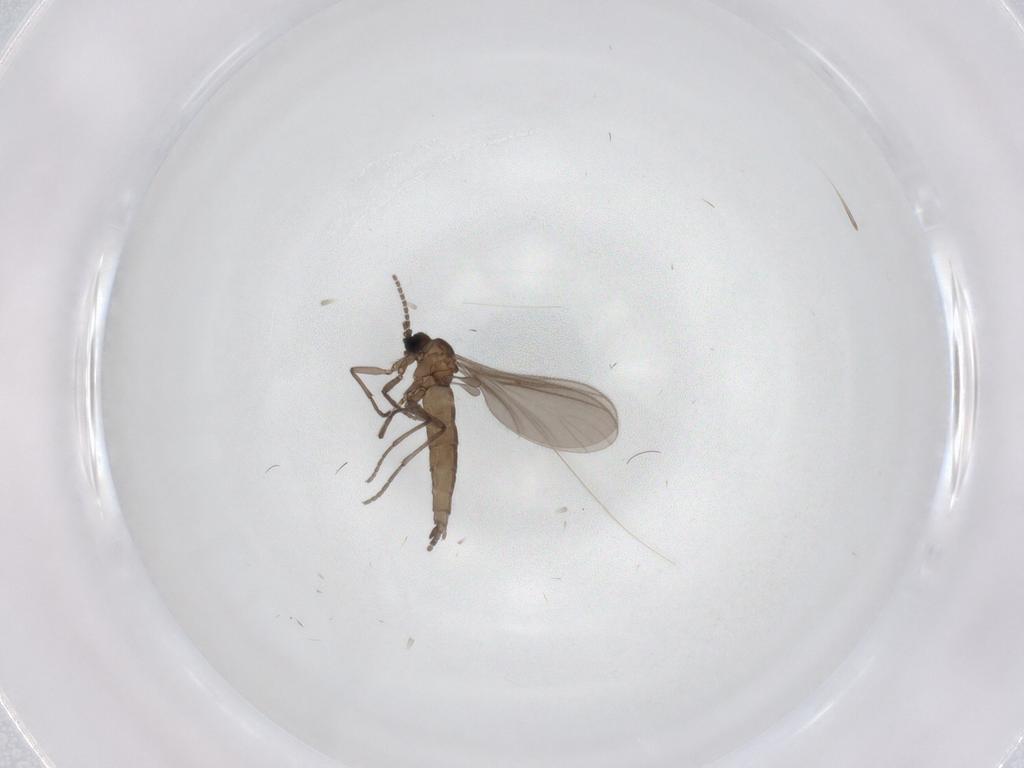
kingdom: Animalia
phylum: Arthropoda
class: Insecta
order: Diptera
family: Sciaridae
